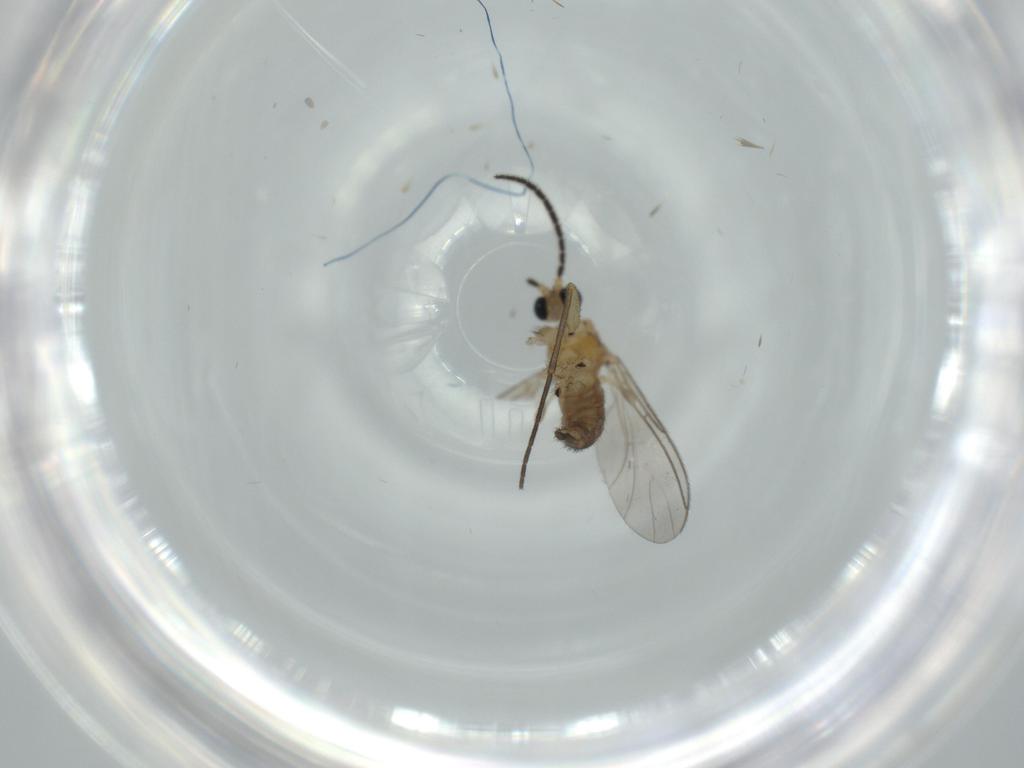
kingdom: Animalia
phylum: Arthropoda
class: Insecta
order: Diptera
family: Sciaridae
